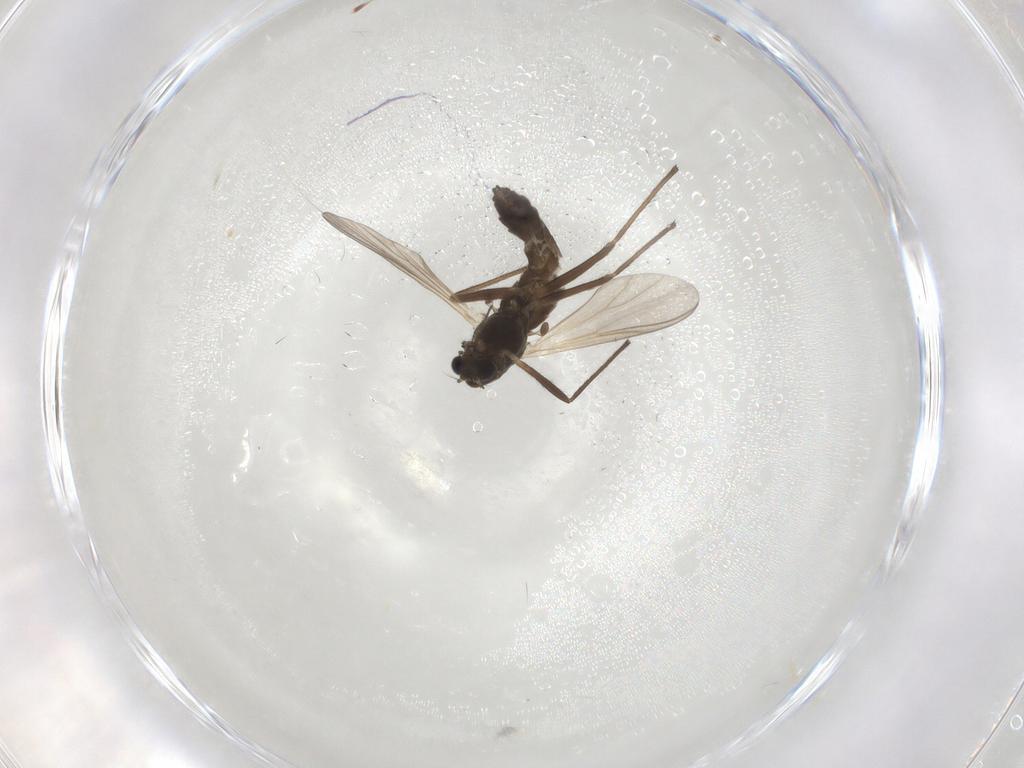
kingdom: Animalia
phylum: Arthropoda
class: Insecta
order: Diptera
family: Chironomidae
